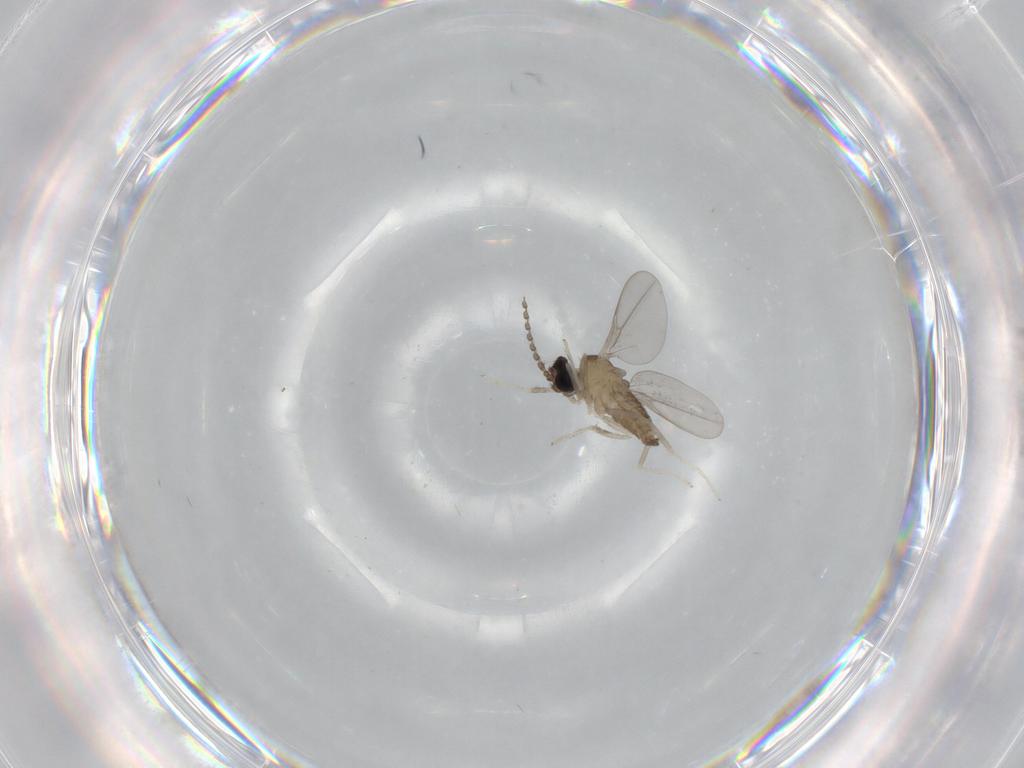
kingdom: Animalia
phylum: Arthropoda
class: Insecta
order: Diptera
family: Cecidomyiidae
